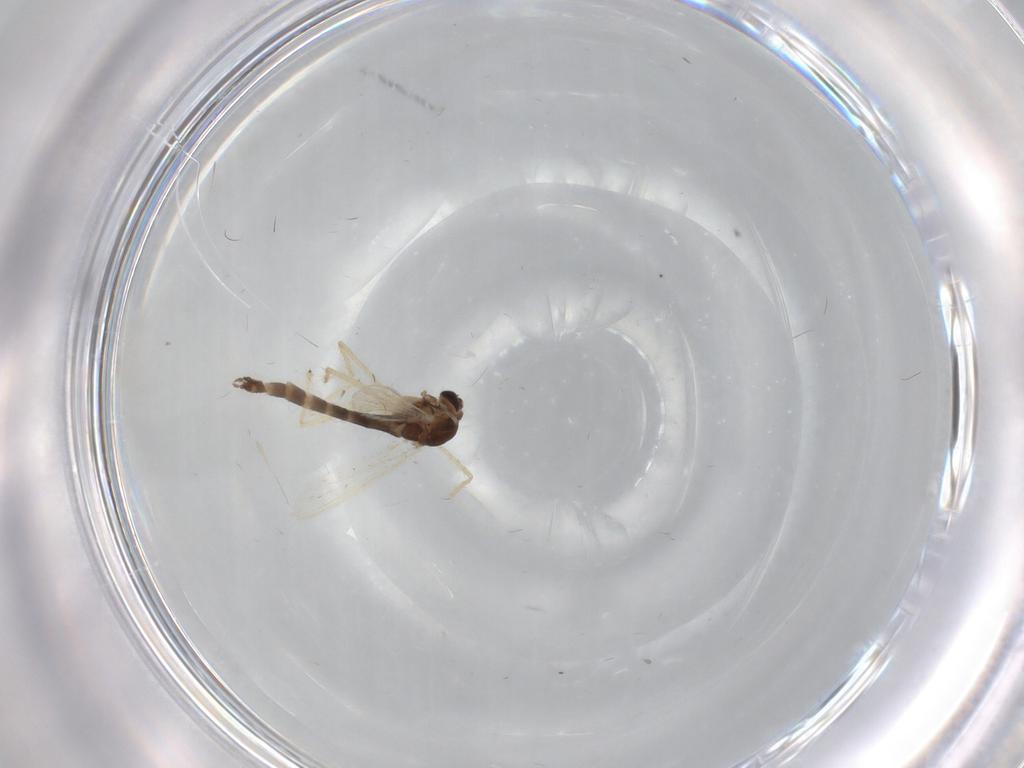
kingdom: Animalia
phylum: Arthropoda
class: Insecta
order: Diptera
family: Chironomidae
